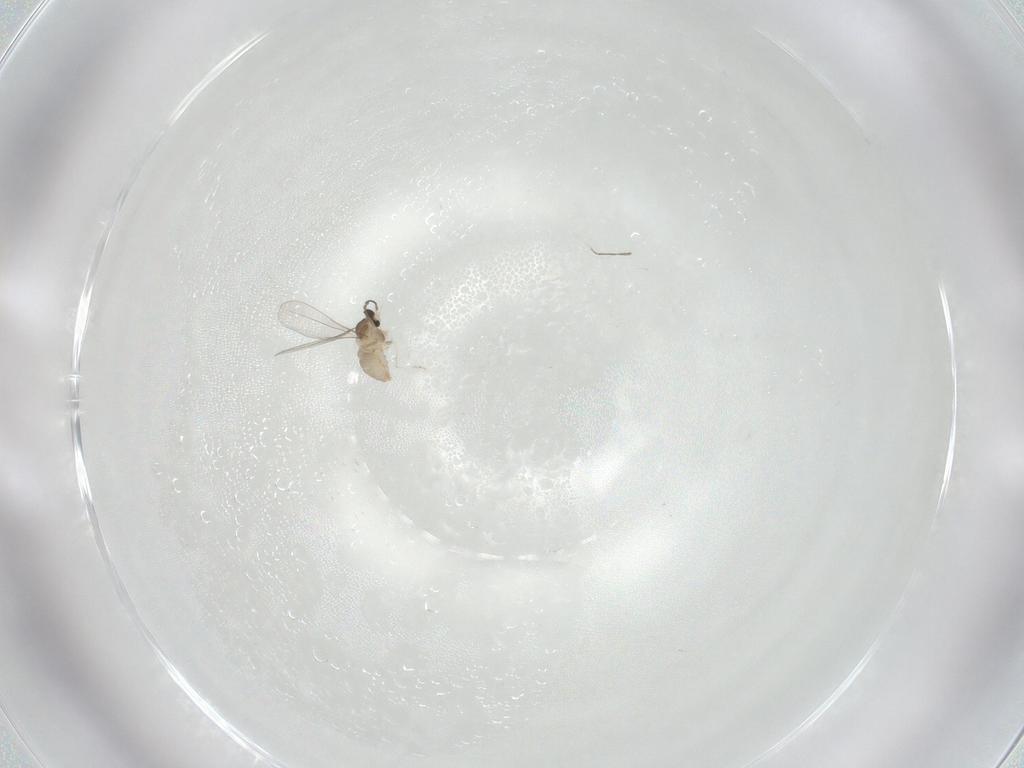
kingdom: Animalia
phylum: Arthropoda
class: Insecta
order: Diptera
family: Cecidomyiidae
